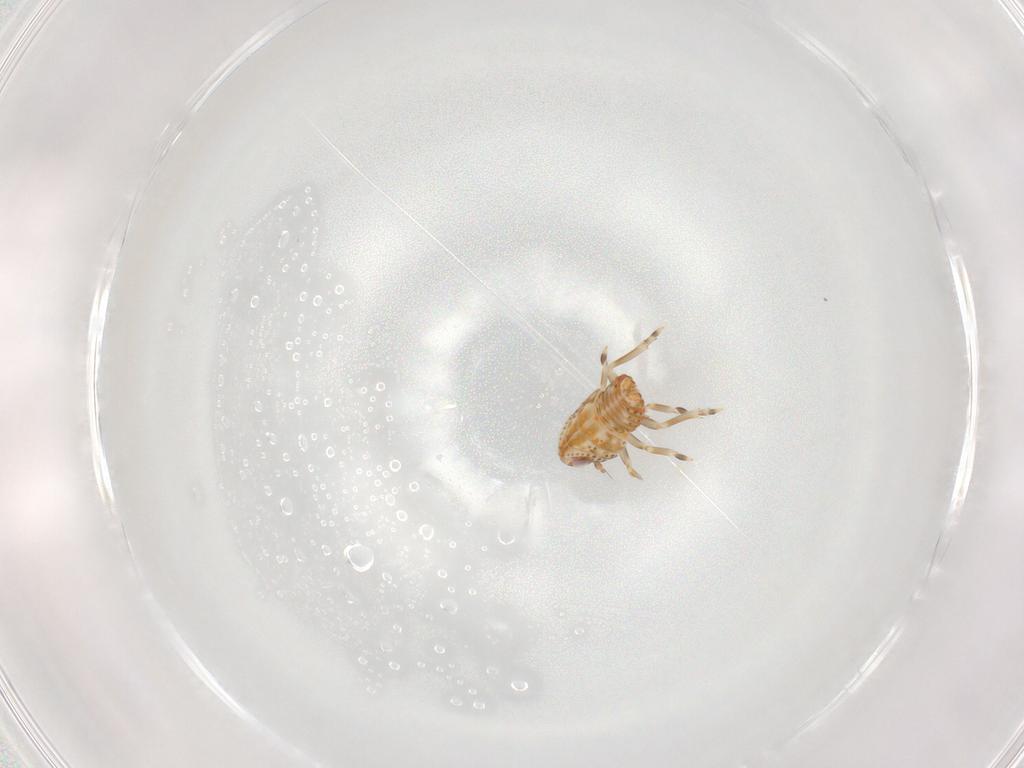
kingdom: Animalia
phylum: Arthropoda
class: Insecta
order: Hemiptera
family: Flatidae
